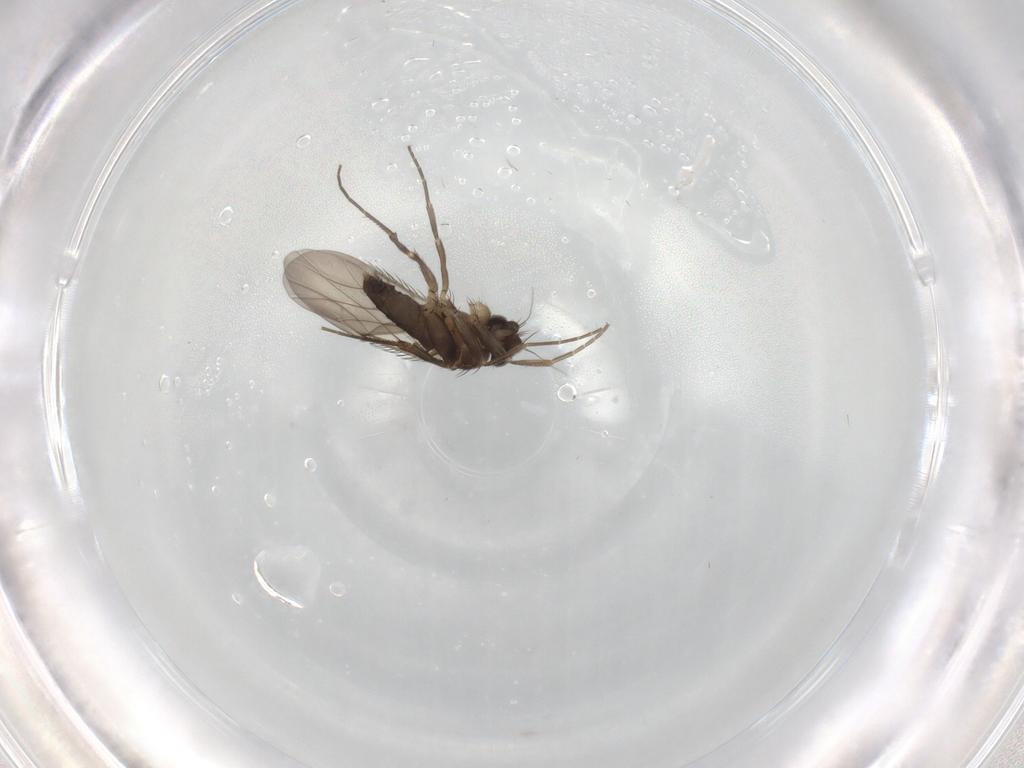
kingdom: Animalia
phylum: Arthropoda
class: Insecta
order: Diptera
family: Phoridae
